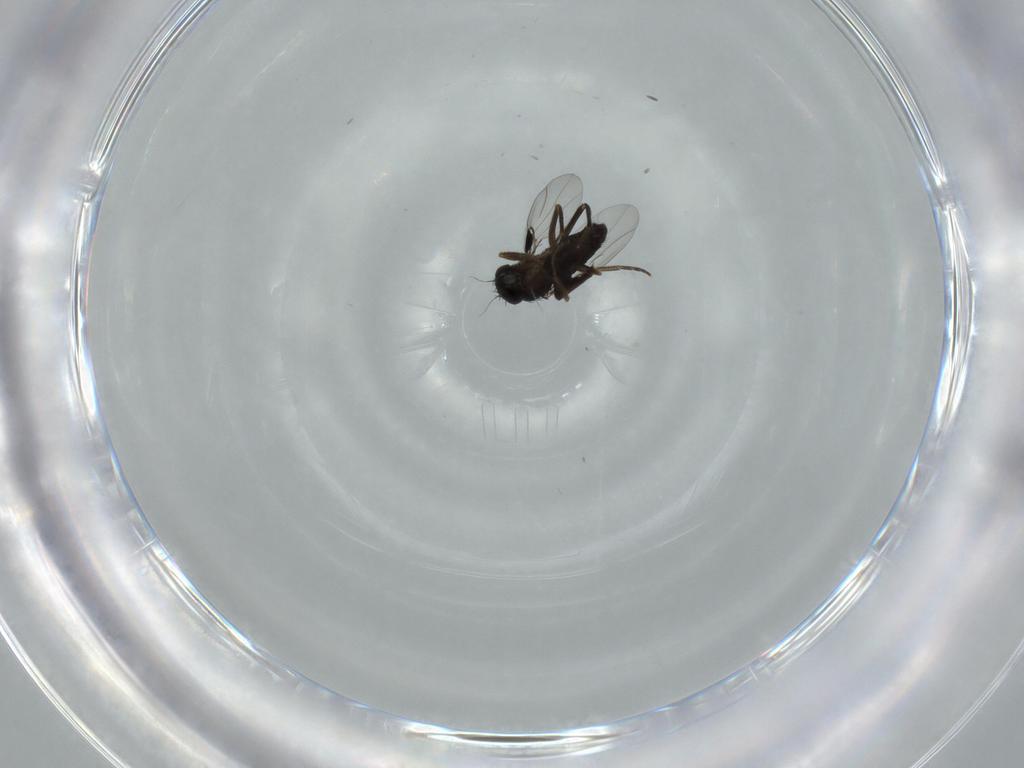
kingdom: Animalia
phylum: Arthropoda
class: Insecta
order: Diptera
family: Phoridae
